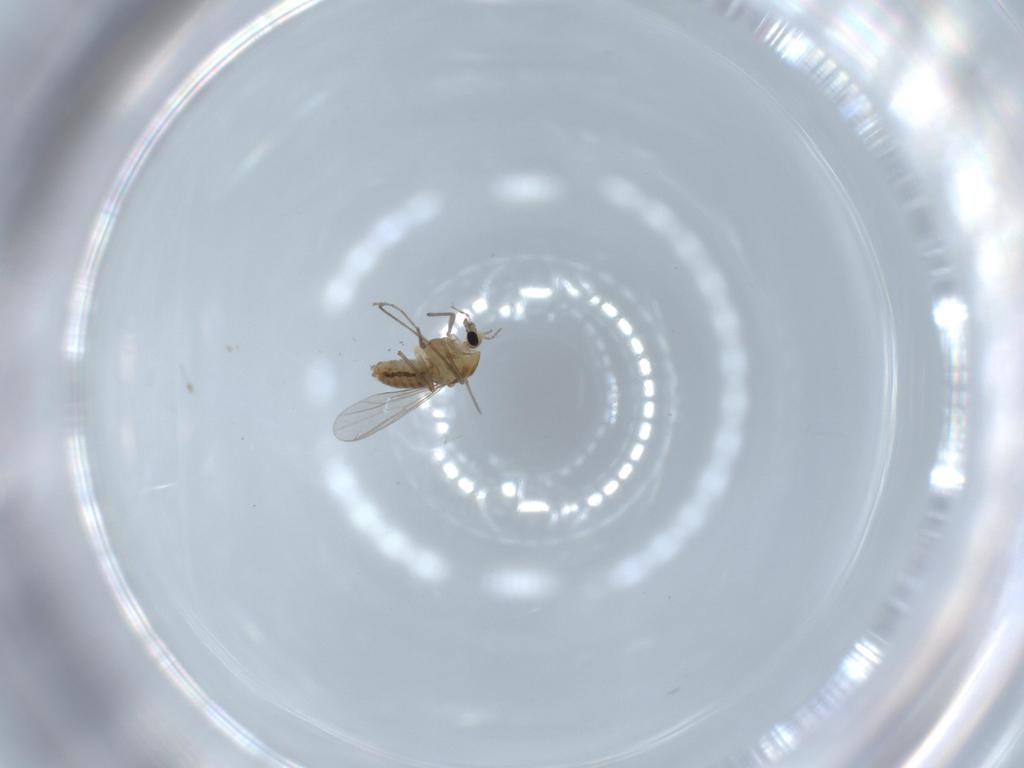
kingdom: Animalia
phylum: Arthropoda
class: Insecta
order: Diptera
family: Chironomidae
